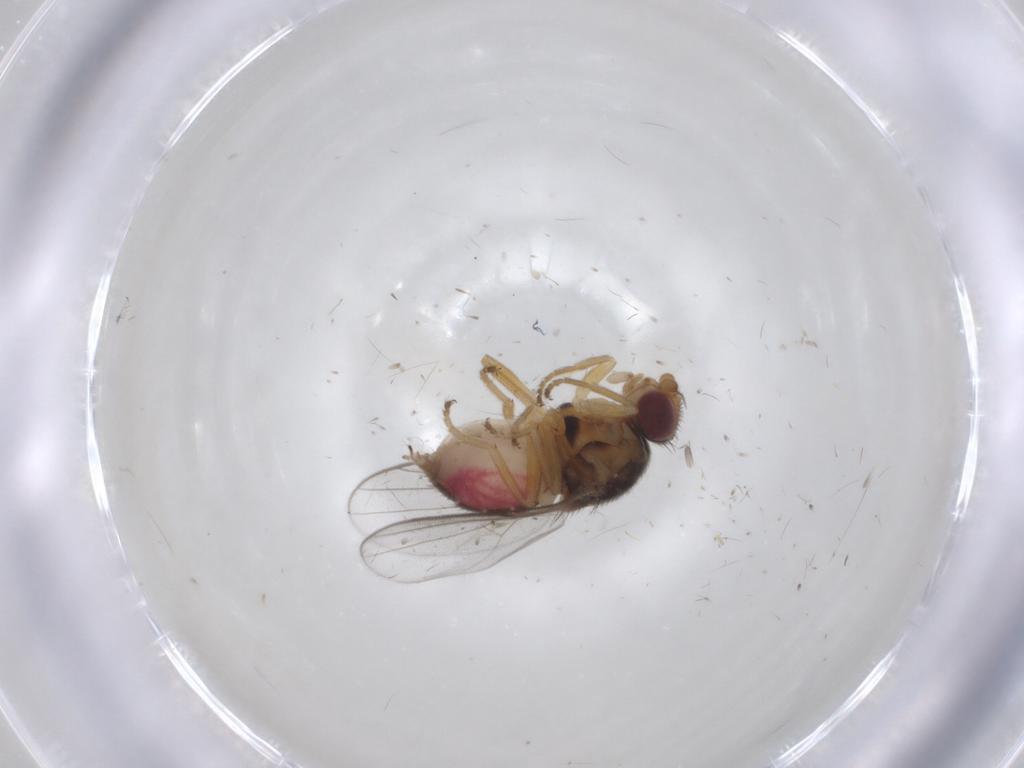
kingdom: Animalia
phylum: Arthropoda
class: Insecta
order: Diptera
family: Chloropidae
